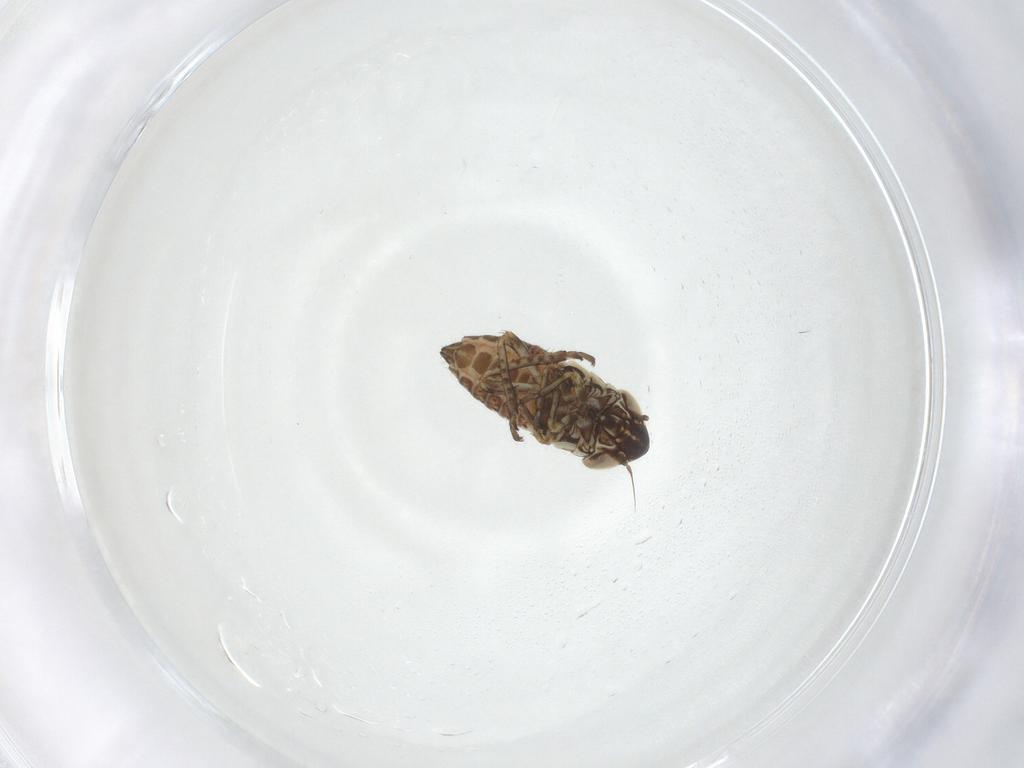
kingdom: Animalia
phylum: Arthropoda
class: Insecta
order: Hemiptera
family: Cicadellidae
